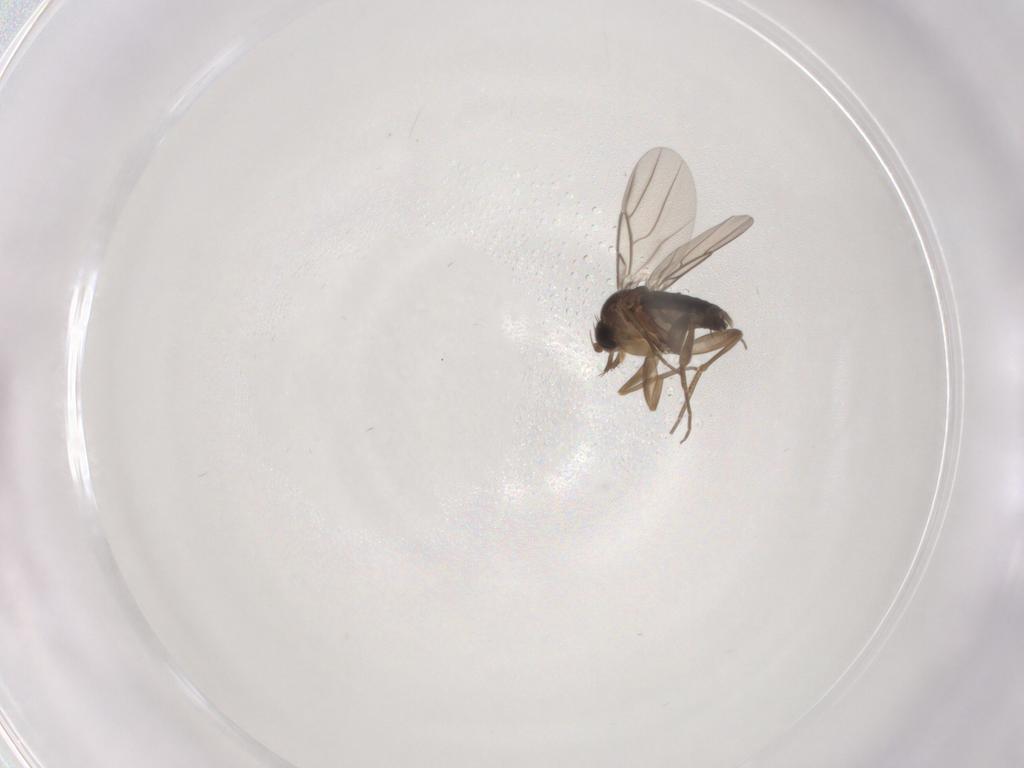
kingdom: Animalia
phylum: Arthropoda
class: Insecta
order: Diptera
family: Phoridae
